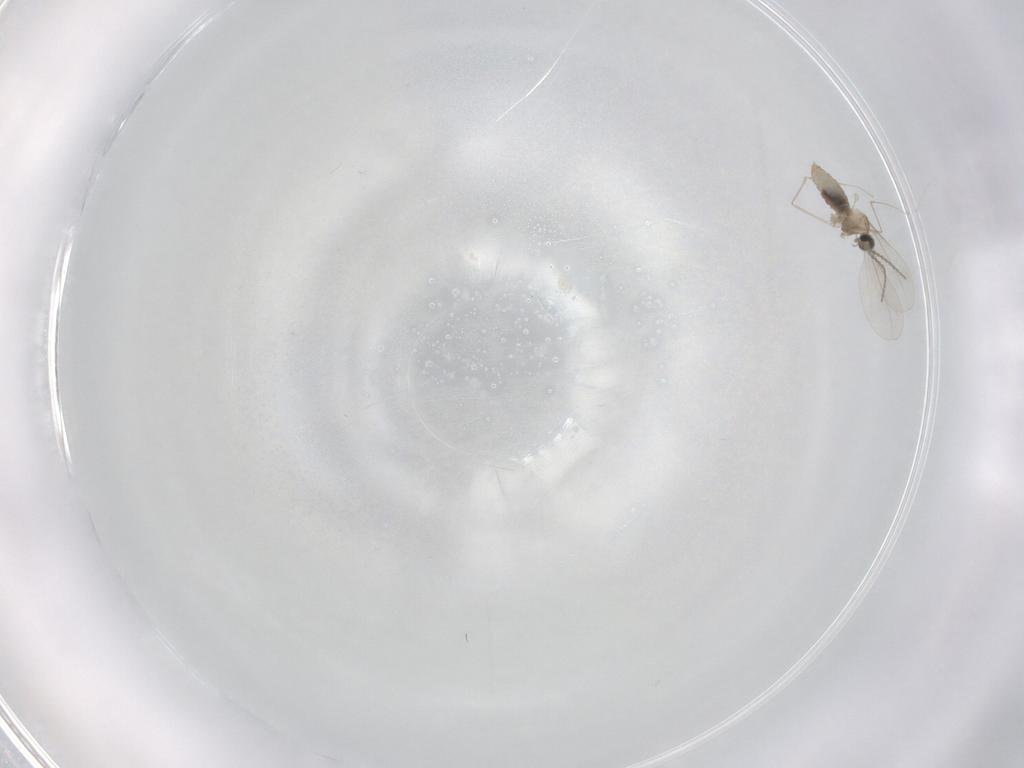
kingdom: Animalia
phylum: Arthropoda
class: Insecta
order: Diptera
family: Cecidomyiidae
